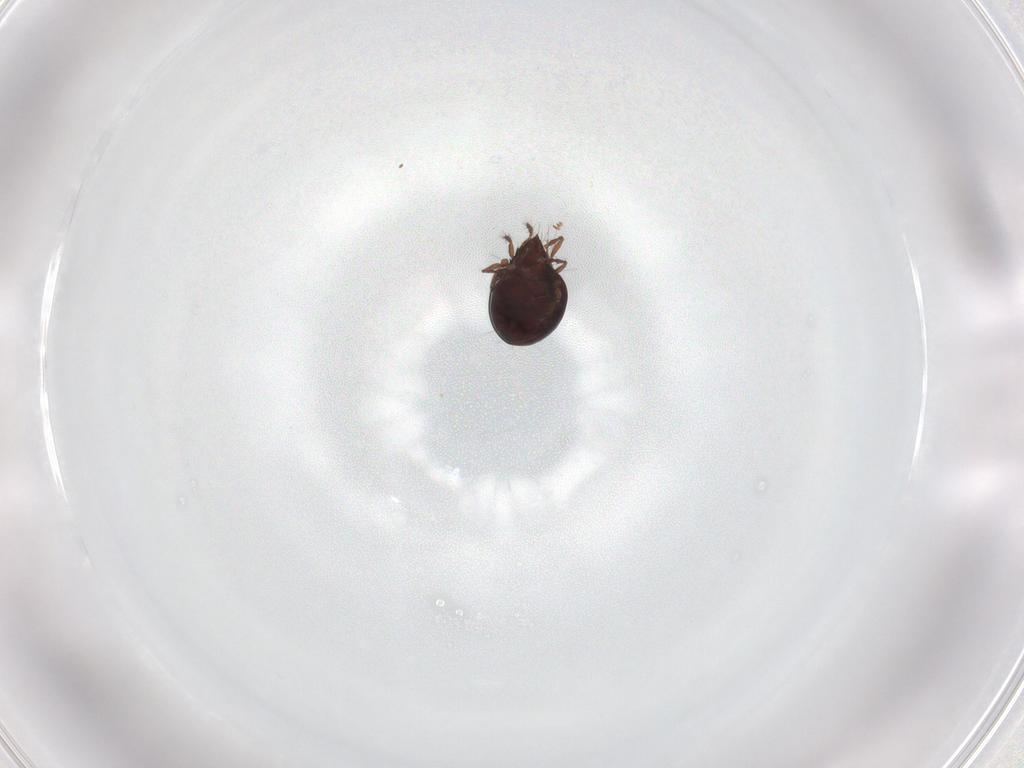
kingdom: Animalia
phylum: Arthropoda
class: Arachnida
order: Sarcoptiformes
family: Ceratoppiidae
